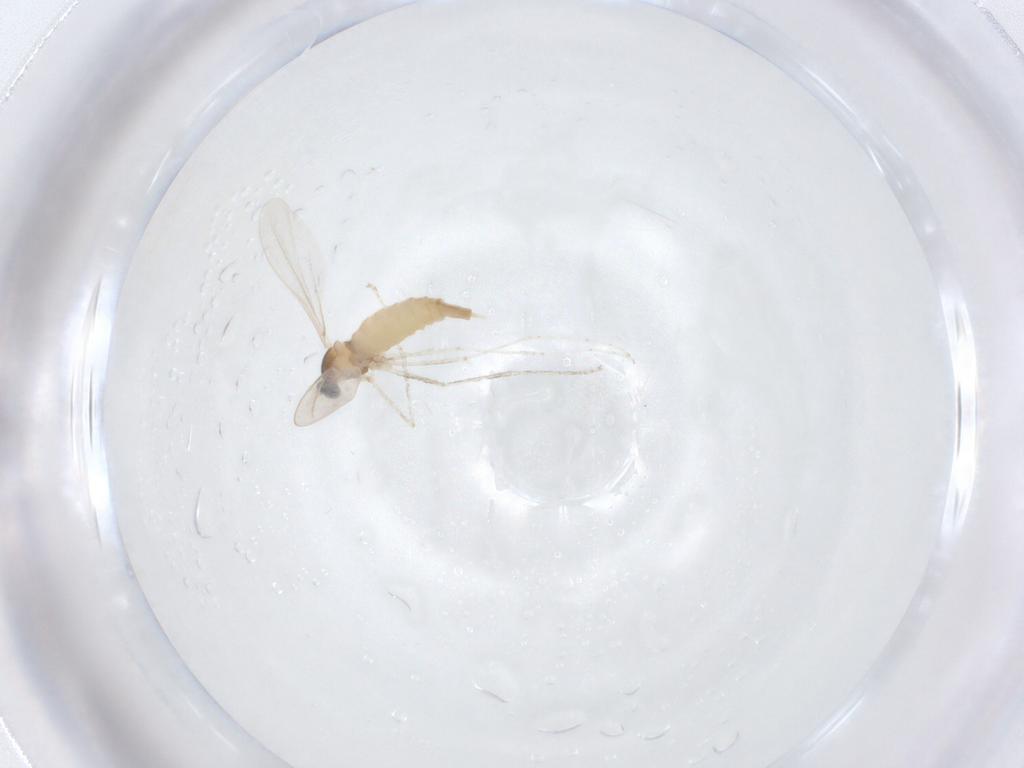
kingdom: Animalia
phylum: Arthropoda
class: Insecta
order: Diptera
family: Cecidomyiidae
